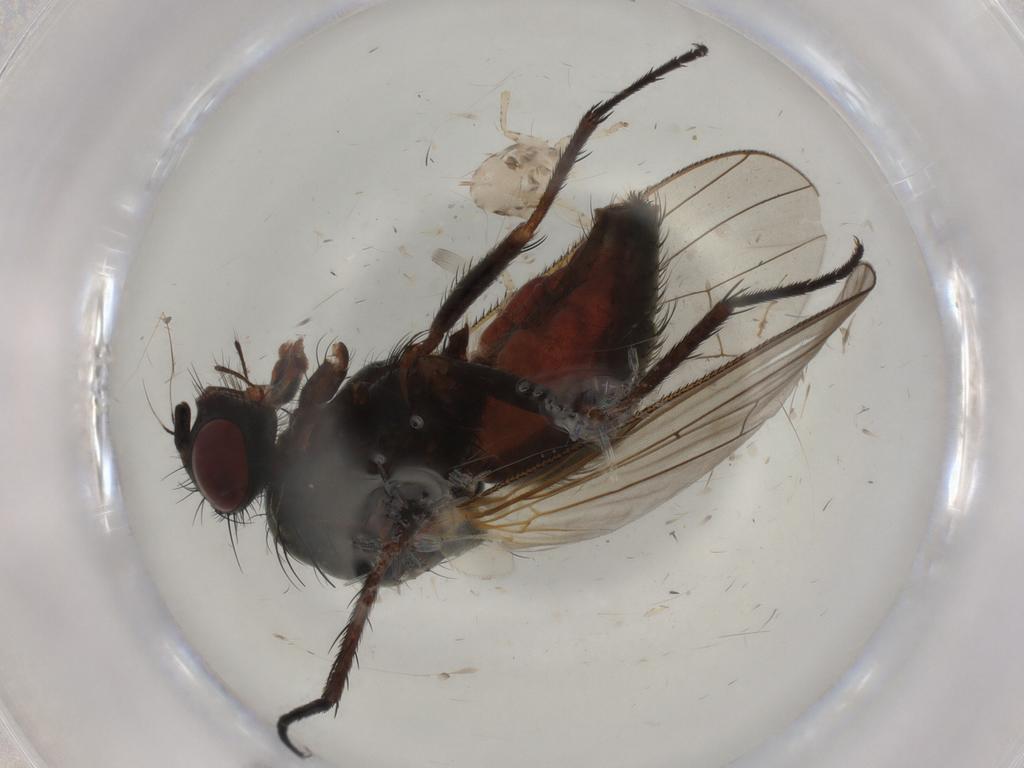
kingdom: Animalia
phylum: Arthropoda
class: Insecta
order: Diptera
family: Anthomyiidae
